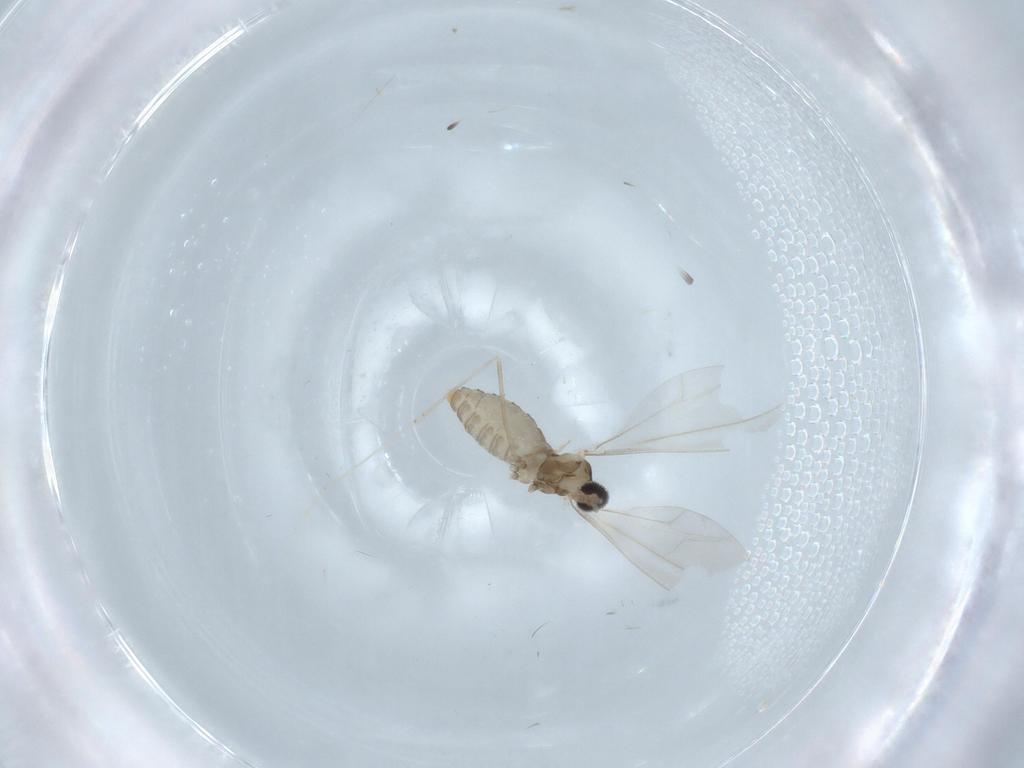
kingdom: Animalia
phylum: Arthropoda
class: Insecta
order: Diptera
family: Cecidomyiidae
